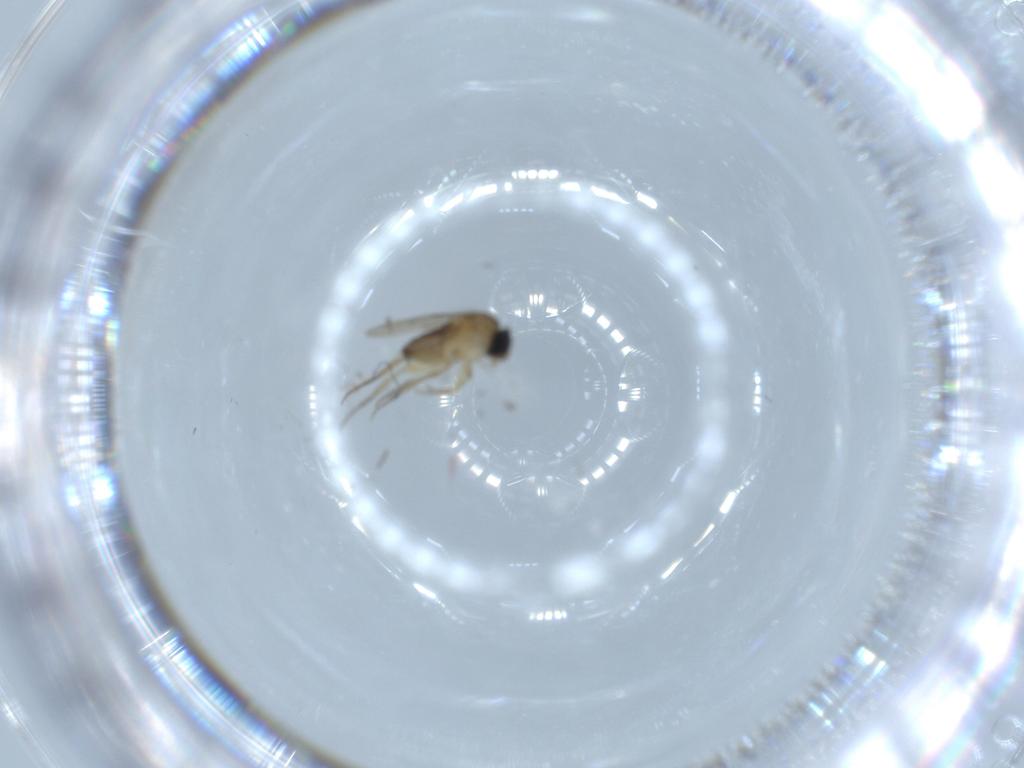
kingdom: Animalia
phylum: Arthropoda
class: Insecta
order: Diptera
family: Phoridae
